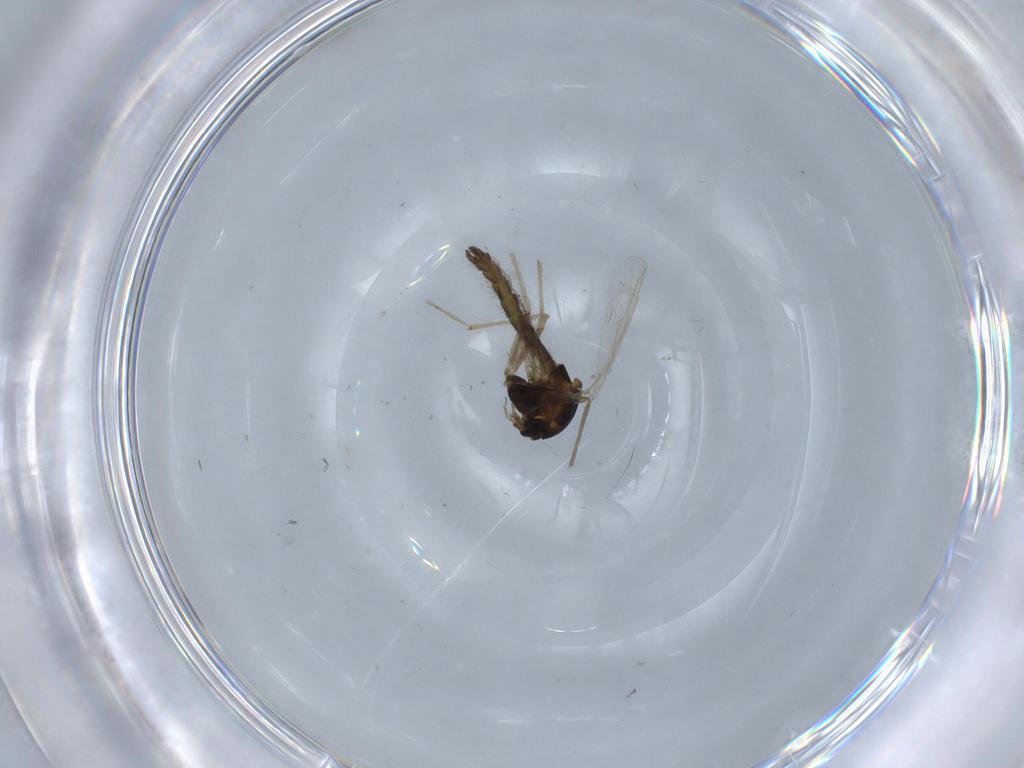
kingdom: Animalia
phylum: Arthropoda
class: Insecta
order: Diptera
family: Chironomidae
